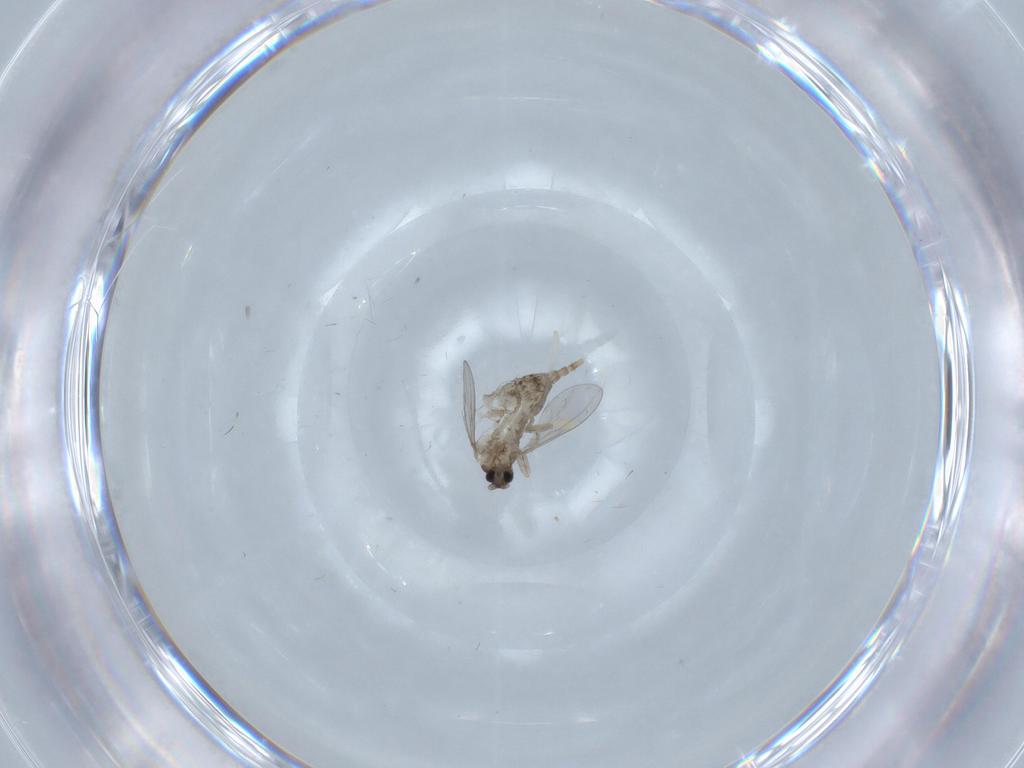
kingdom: Animalia
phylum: Arthropoda
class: Insecta
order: Diptera
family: Cecidomyiidae
